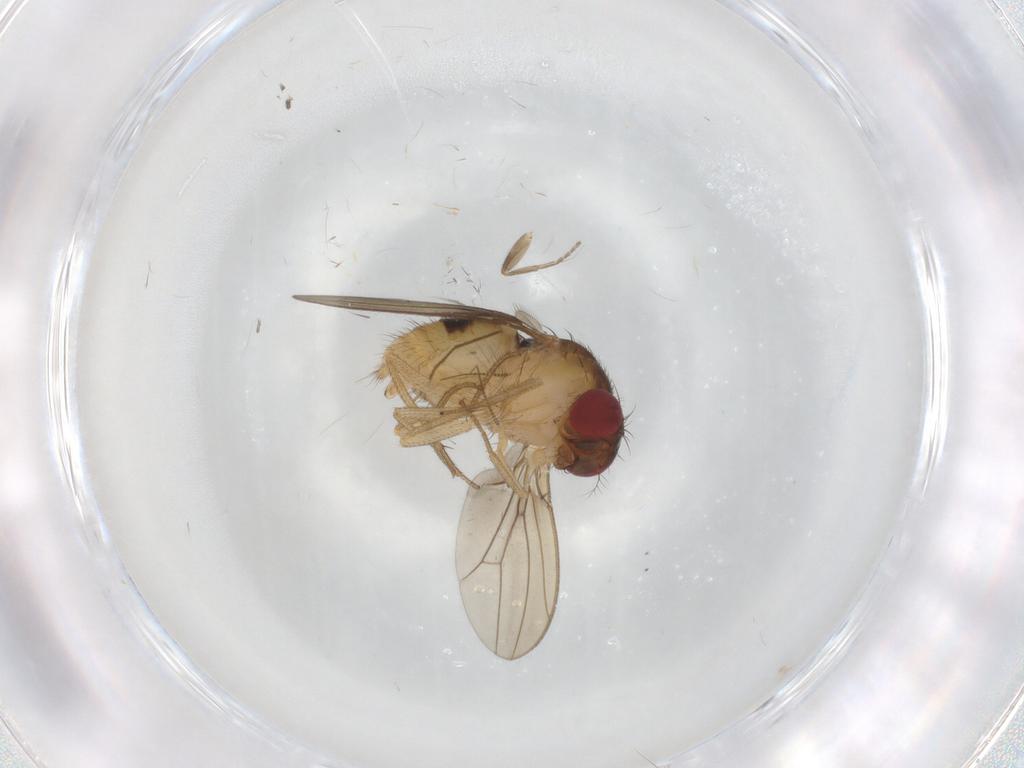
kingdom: Animalia
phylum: Arthropoda
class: Insecta
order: Diptera
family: Drosophilidae
